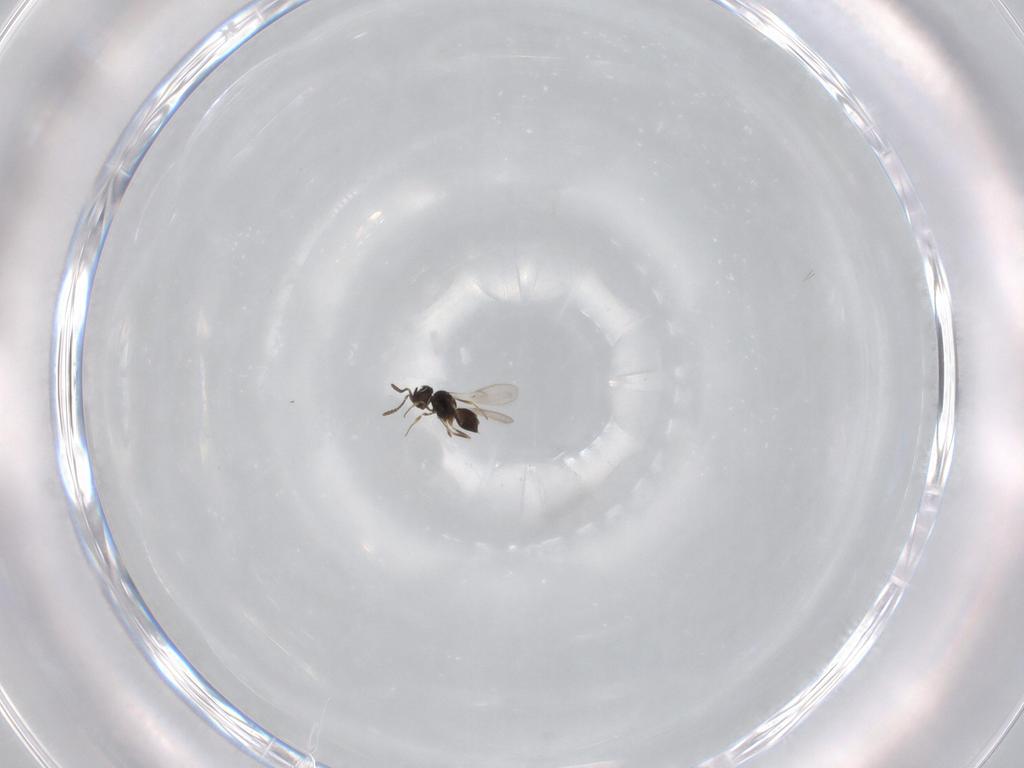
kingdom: Animalia
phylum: Arthropoda
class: Insecta
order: Hymenoptera
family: Scelionidae
